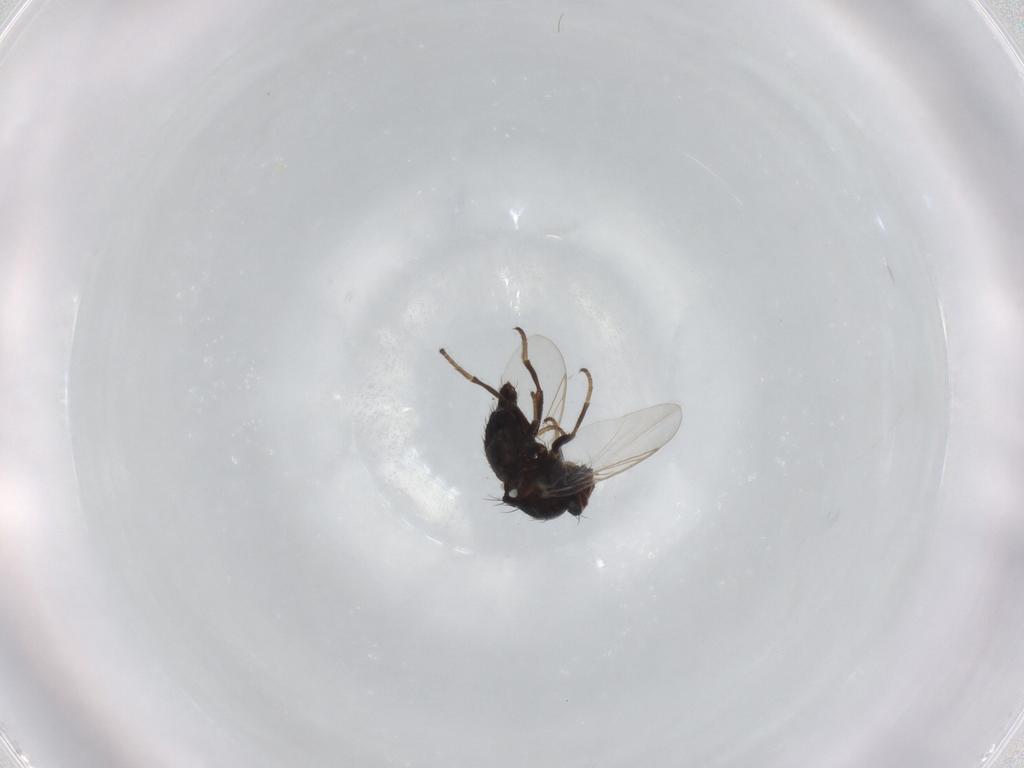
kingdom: Animalia
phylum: Arthropoda
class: Insecta
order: Diptera
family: Agromyzidae
